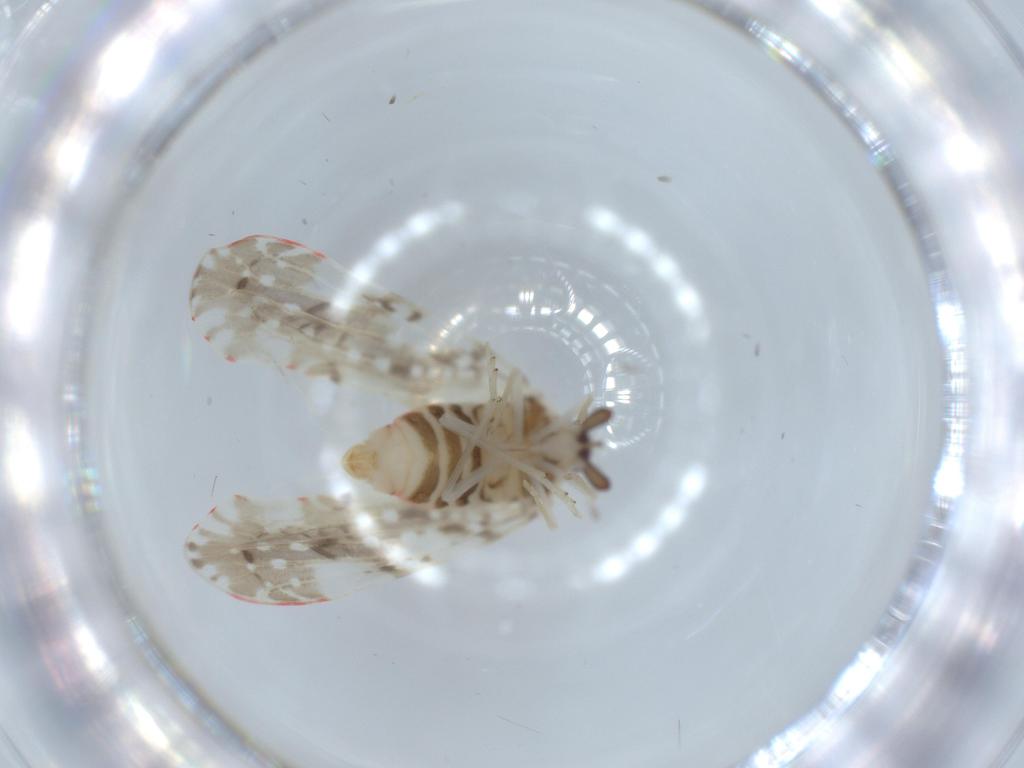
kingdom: Animalia
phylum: Arthropoda
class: Insecta
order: Hemiptera
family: Derbidae
